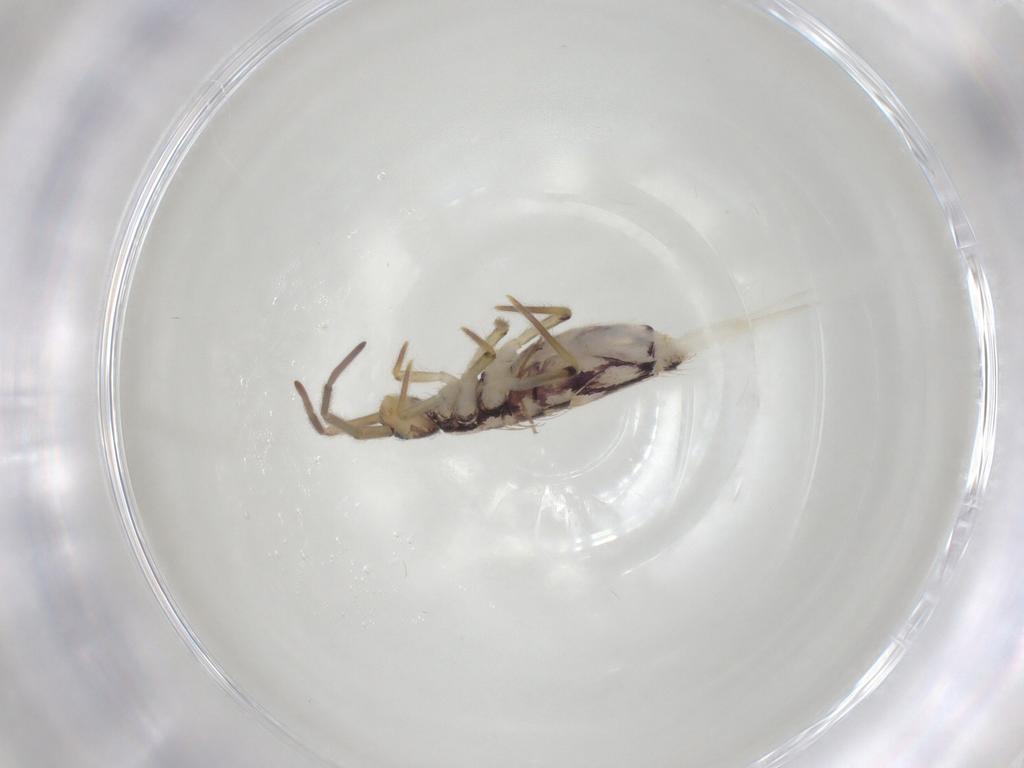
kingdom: Animalia
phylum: Arthropoda
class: Collembola
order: Entomobryomorpha
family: Entomobryidae
